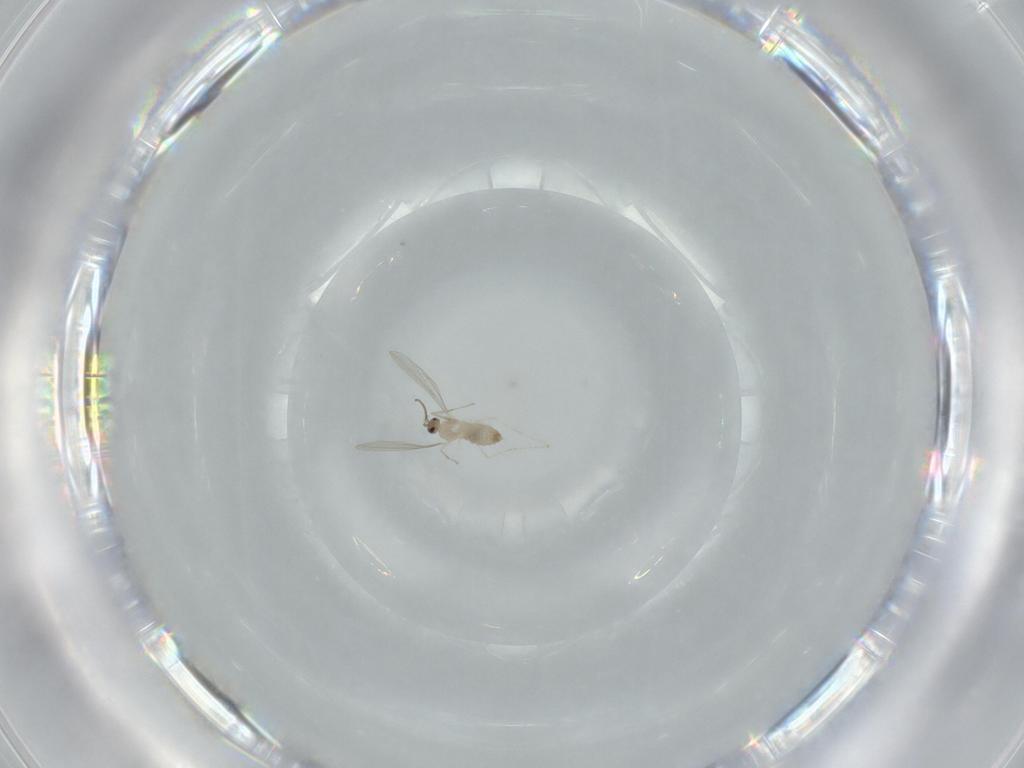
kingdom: Animalia
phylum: Arthropoda
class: Insecta
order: Diptera
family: Cecidomyiidae
